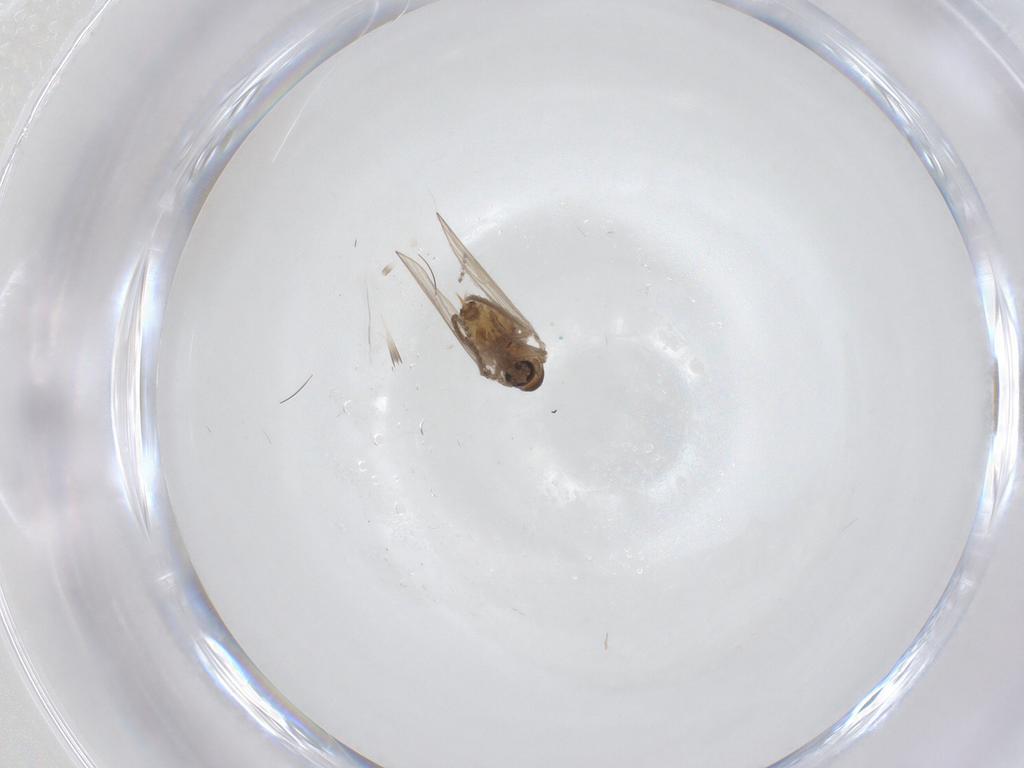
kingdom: Animalia
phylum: Arthropoda
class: Insecta
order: Diptera
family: Psychodidae
